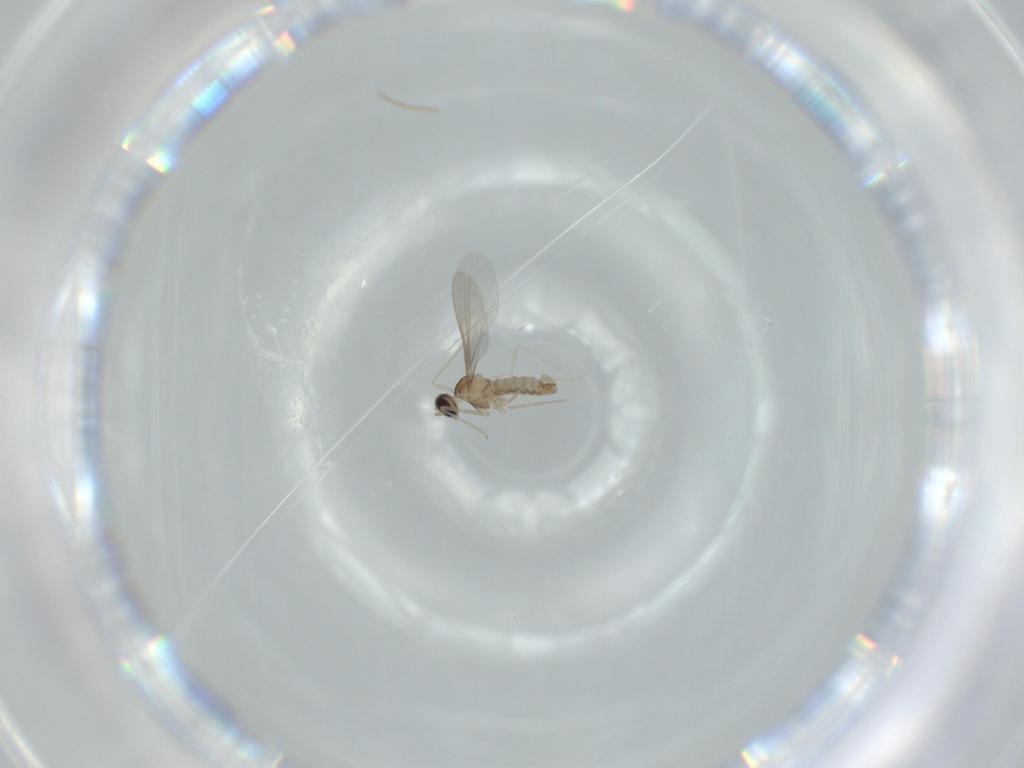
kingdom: Animalia
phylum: Arthropoda
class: Insecta
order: Diptera
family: Cecidomyiidae
